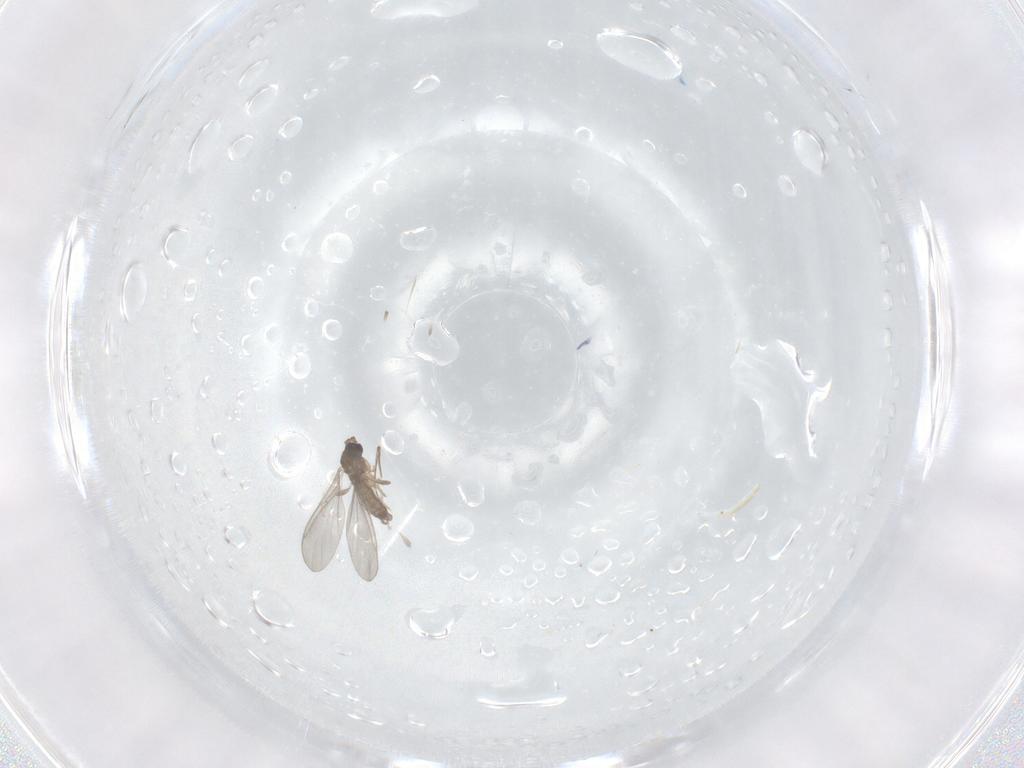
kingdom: Animalia
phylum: Arthropoda
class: Insecta
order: Diptera
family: Cecidomyiidae
